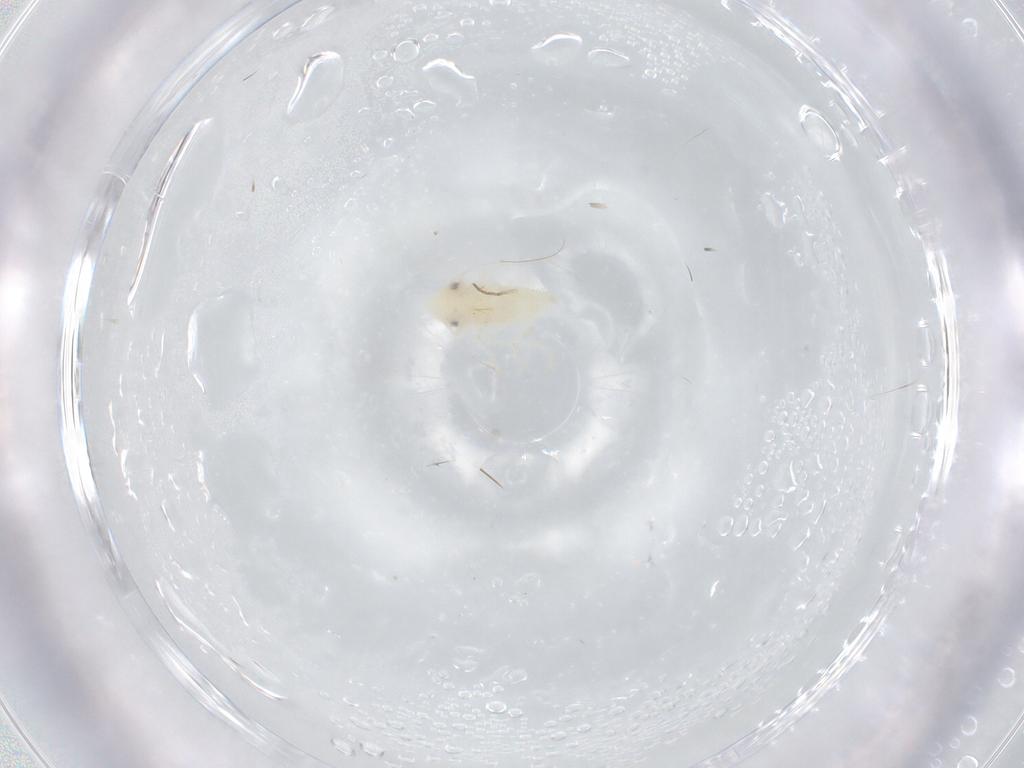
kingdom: Animalia
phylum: Arthropoda
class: Insecta
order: Hemiptera
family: Cicadellidae
